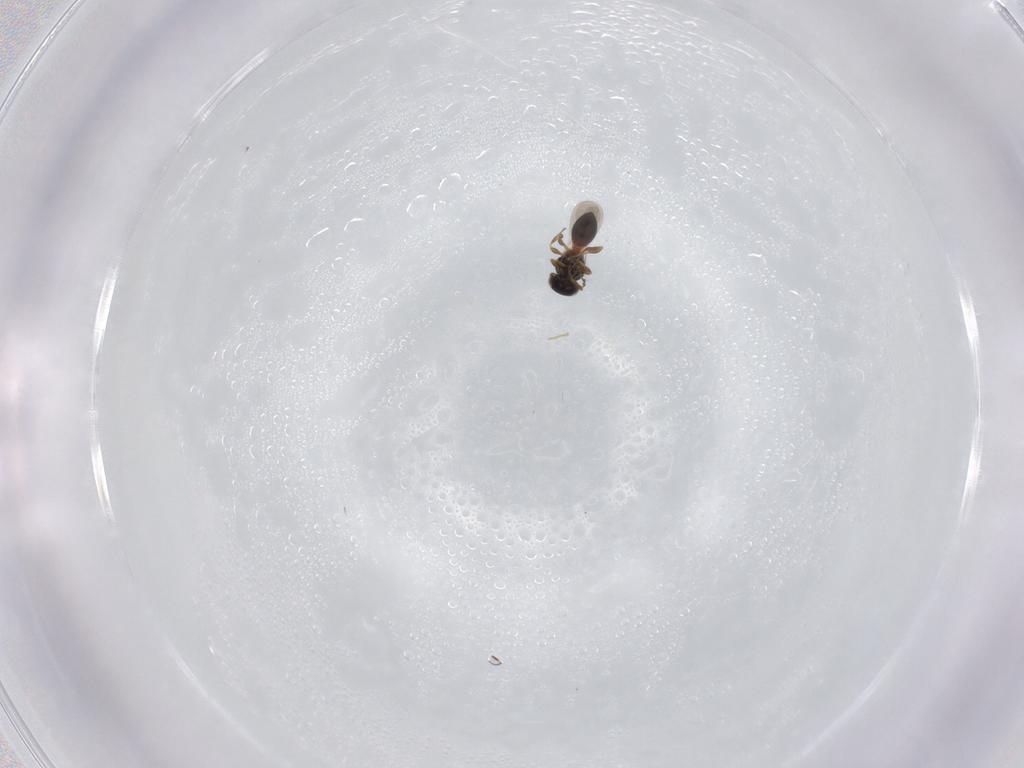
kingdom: Animalia
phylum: Arthropoda
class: Insecta
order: Hymenoptera
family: Platygastridae
